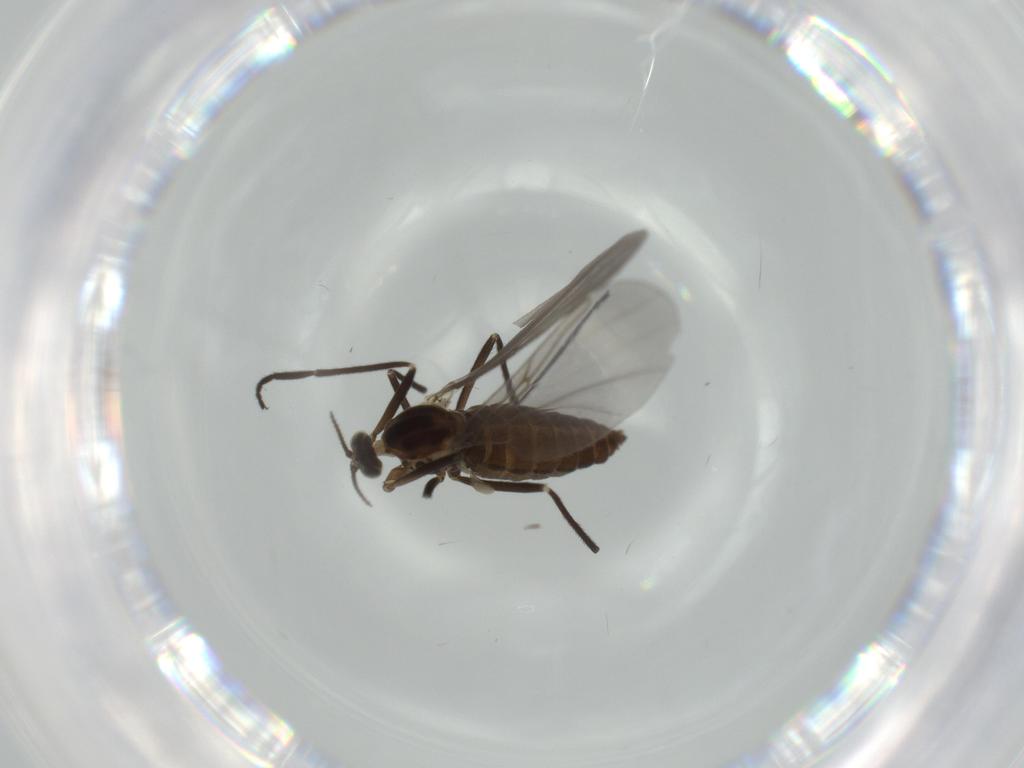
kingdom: Animalia
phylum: Arthropoda
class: Insecta
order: Diptera
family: Cecidomyiidae
